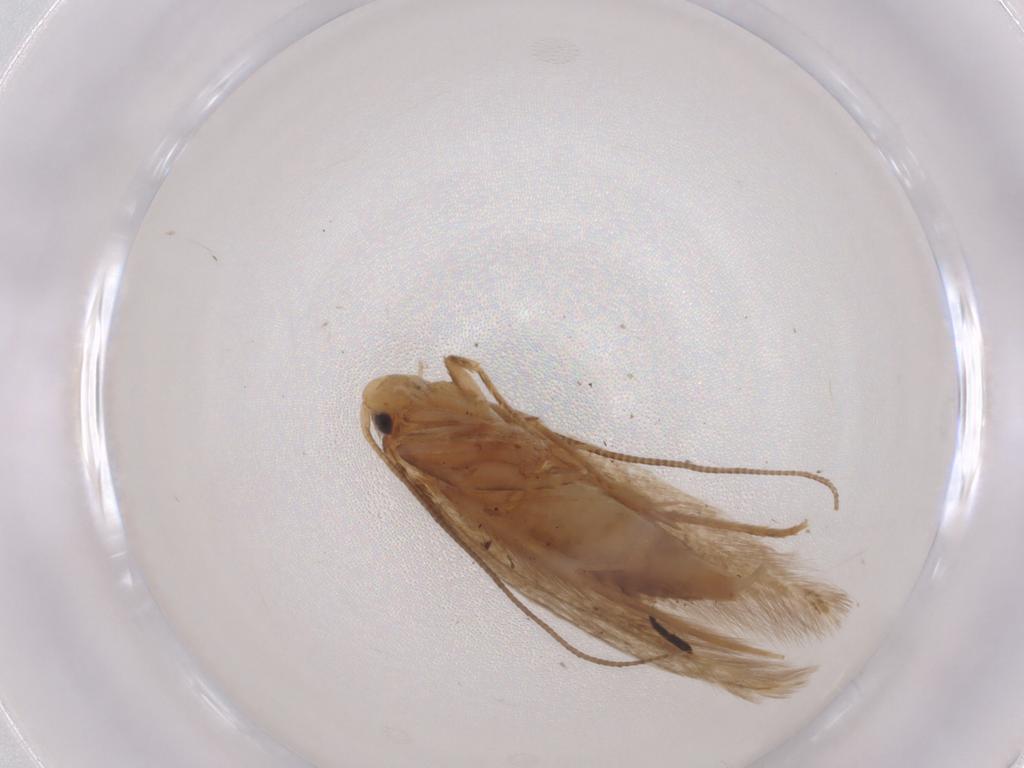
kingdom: Animalia
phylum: Arthropoda
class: Insecta
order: Lepidoptera
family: Tineidae
